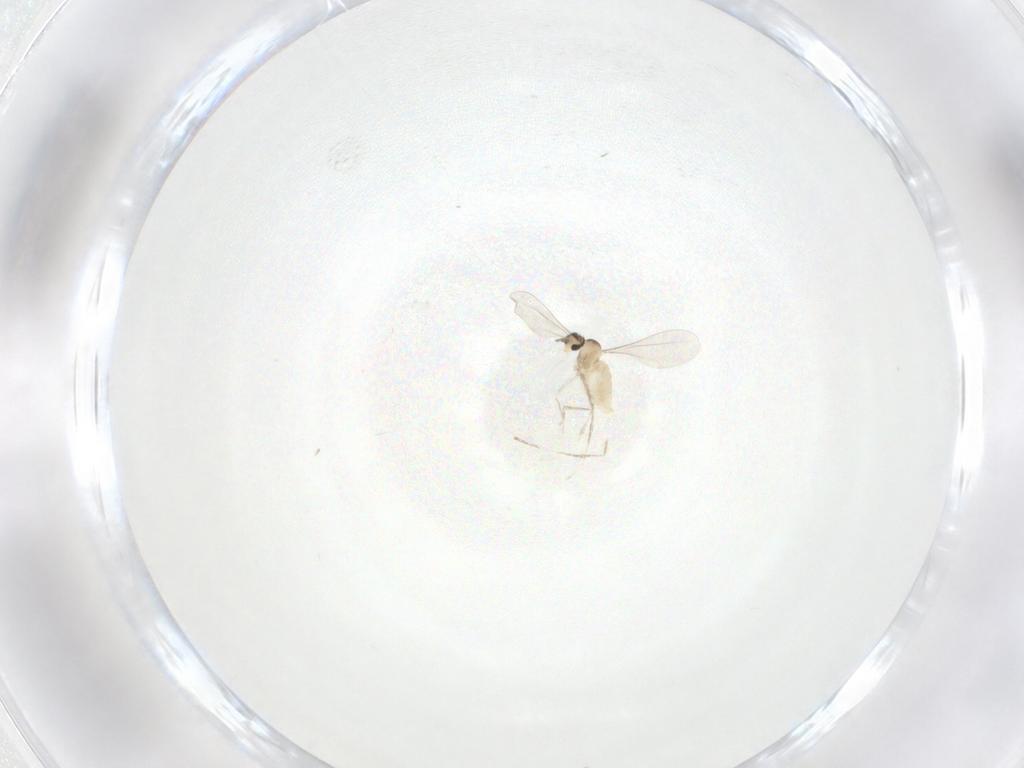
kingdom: Animalia
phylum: Arthropoda
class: Insecta
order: Diptera
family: Cecidomyiidae
